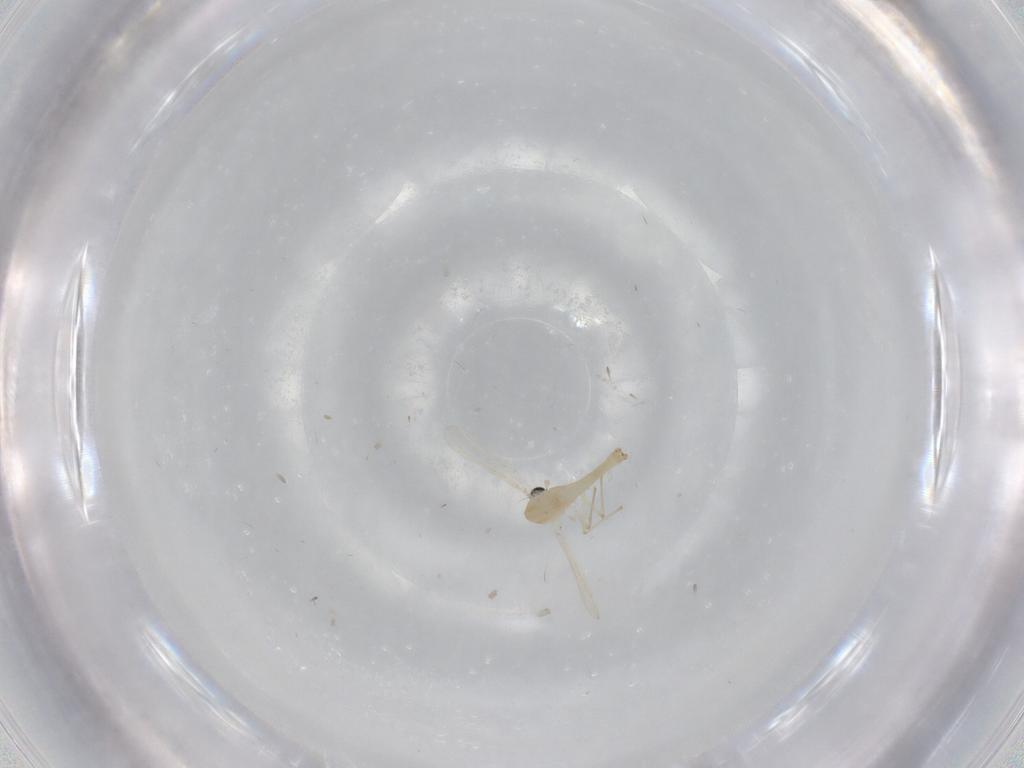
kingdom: Animalia
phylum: Arthropoda
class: Insecta
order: Diptera
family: Chironomidae
